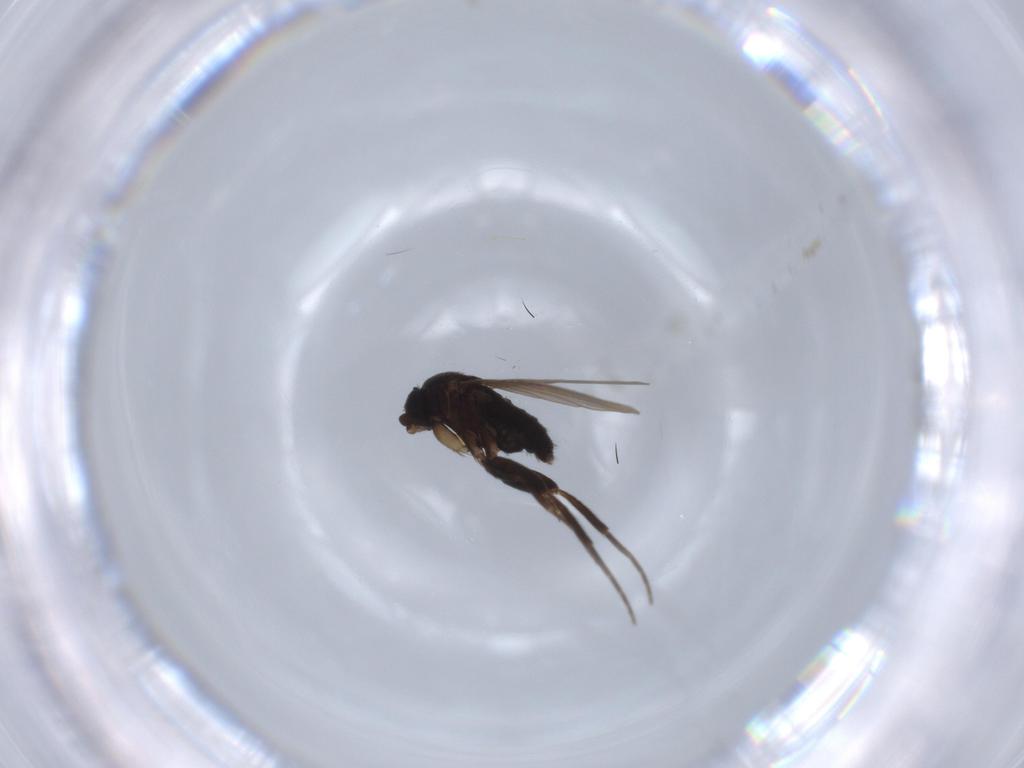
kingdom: Animalia
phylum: Arthropoda
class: Insecta
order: Diptera
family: Phoridae
